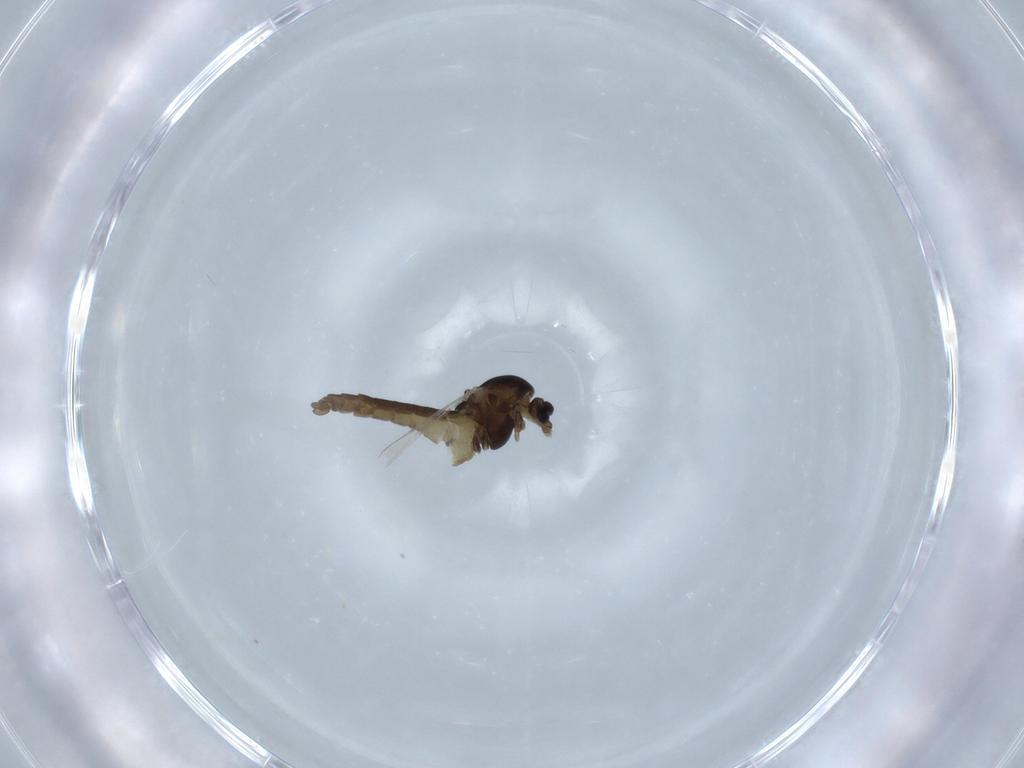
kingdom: Animalia
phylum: Arthropoda
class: Insecta
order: Diptera
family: Chironomidae
